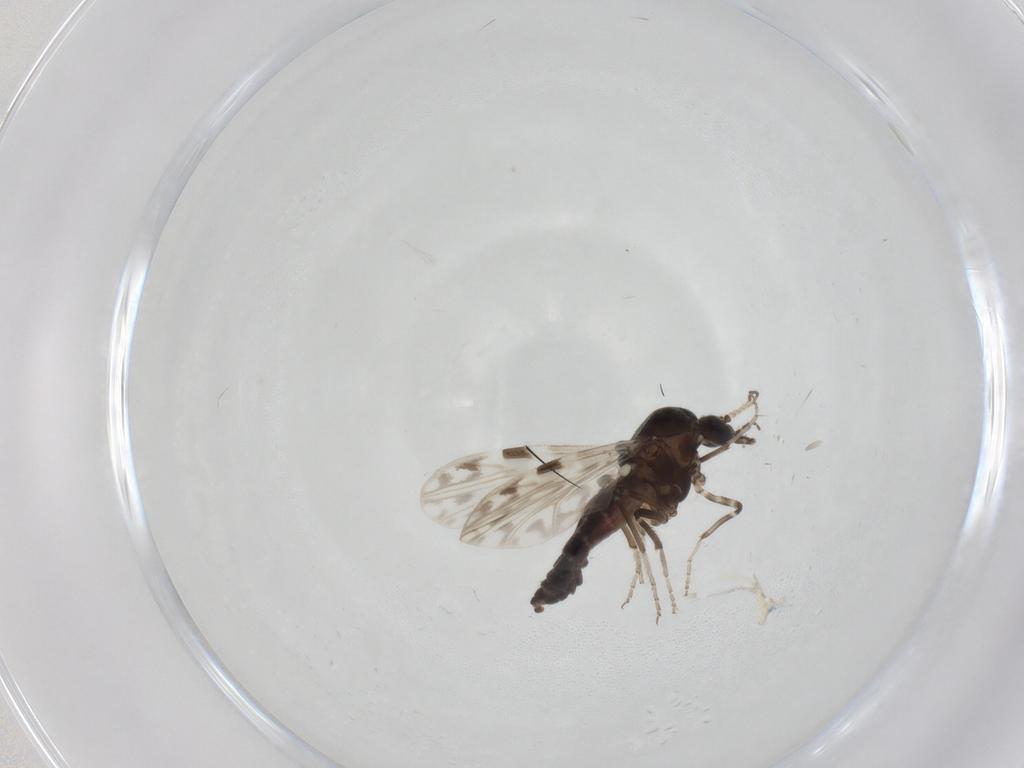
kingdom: Animalia
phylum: Arthropoda
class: Insecta
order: Diptera
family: Ceratopogonidae
